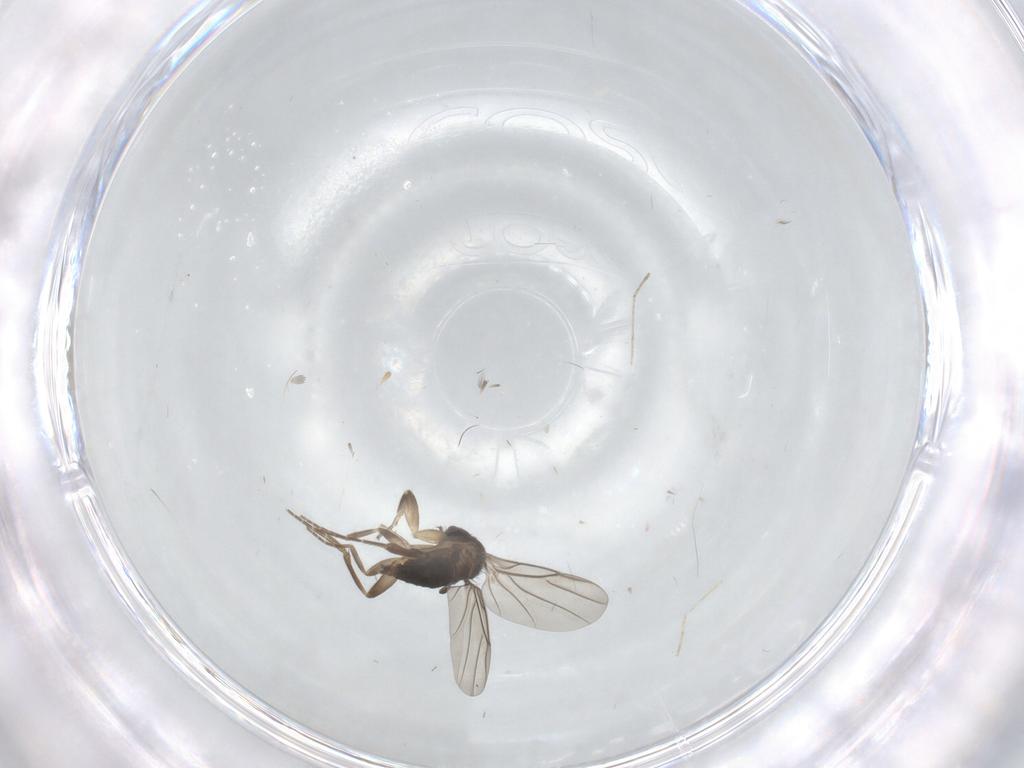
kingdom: Animalia
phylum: Arthropoda
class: Insecta
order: Diptera
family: Phoridae
